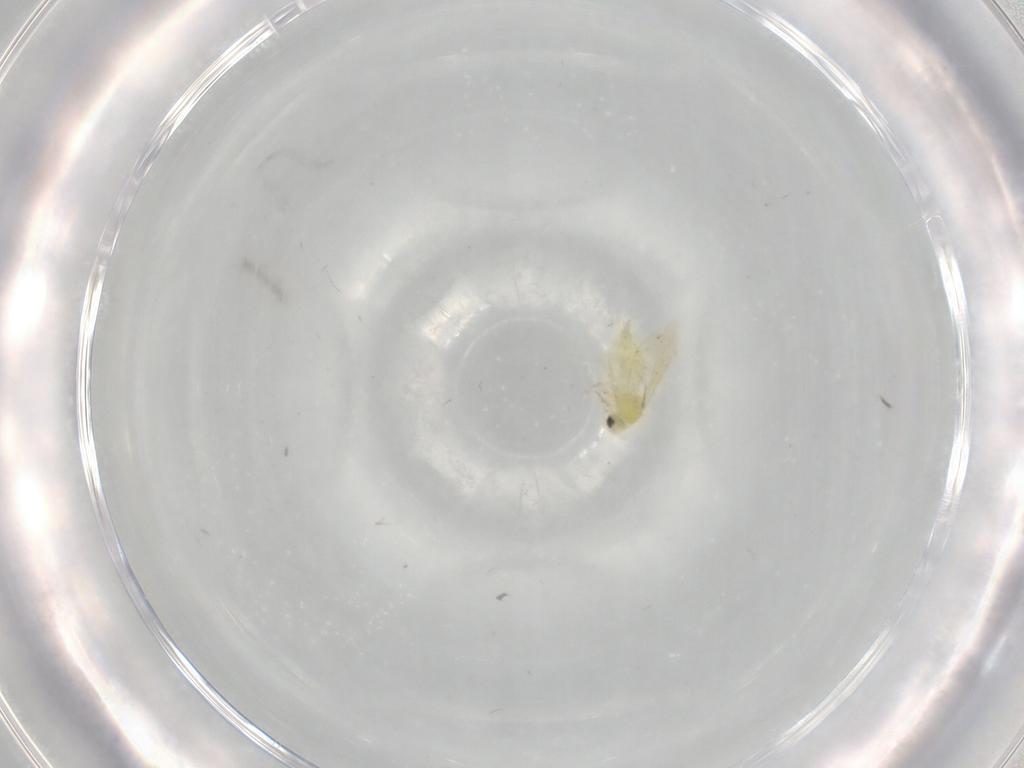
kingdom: Animalia
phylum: Arthropoda
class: Insecta
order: Hemiptera
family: Aleyrodidae
